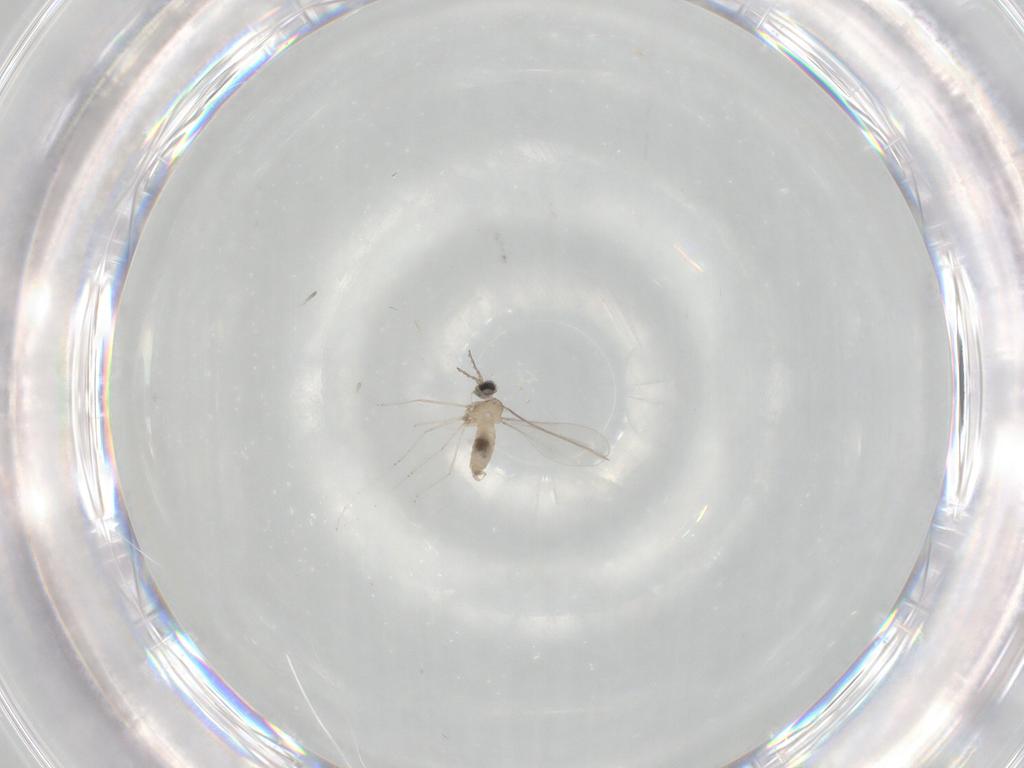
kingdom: Animalia
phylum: Arthropoda
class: Insecta
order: Diptera
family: Cecidomyiidae
